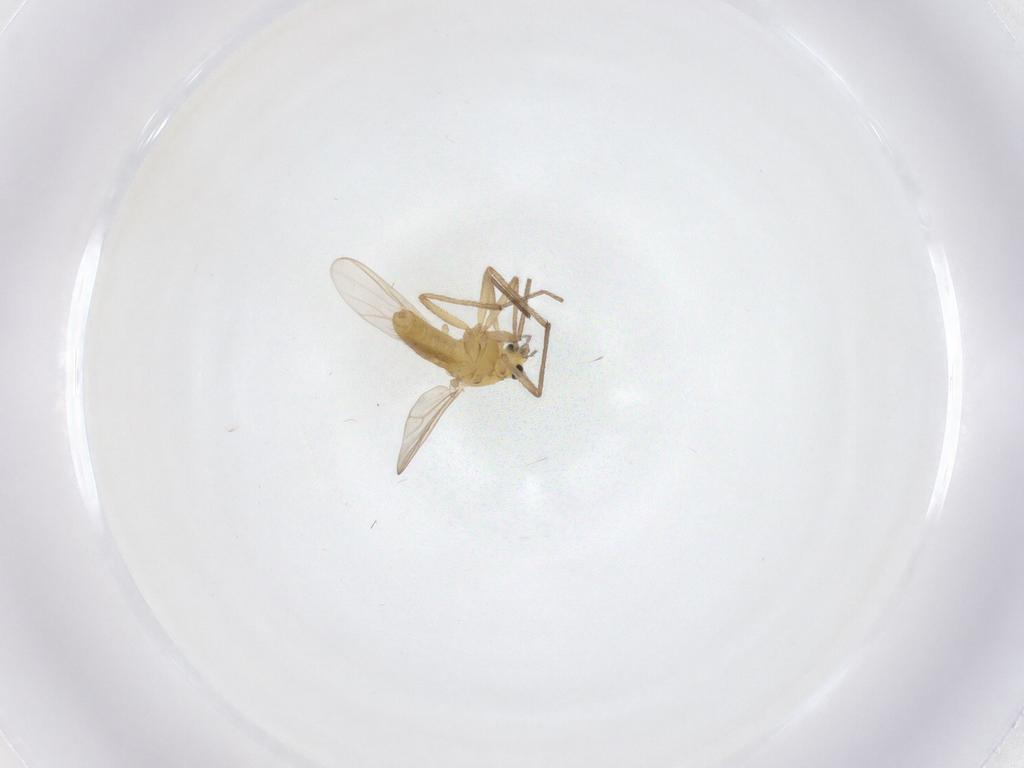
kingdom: Animalia
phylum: Arthropoda
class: Insecta
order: Diptera
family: Chironomidae
